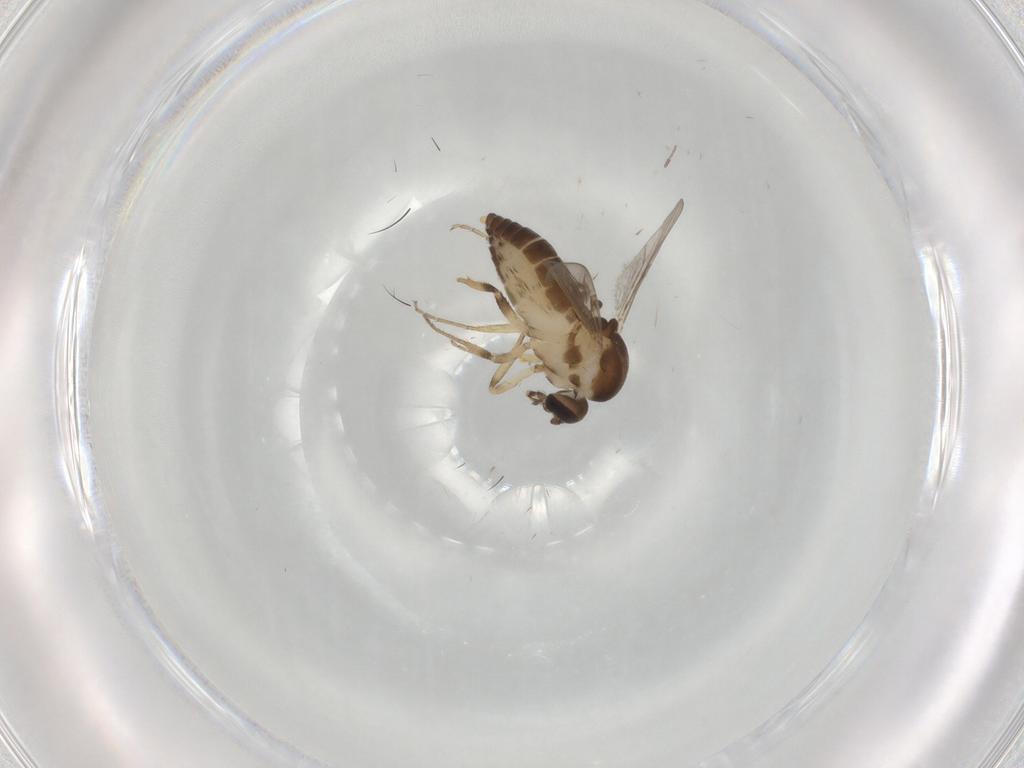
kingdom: Animalia
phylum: Arthropoda
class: Insecta
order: Diptera
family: Ceratopogonidae
